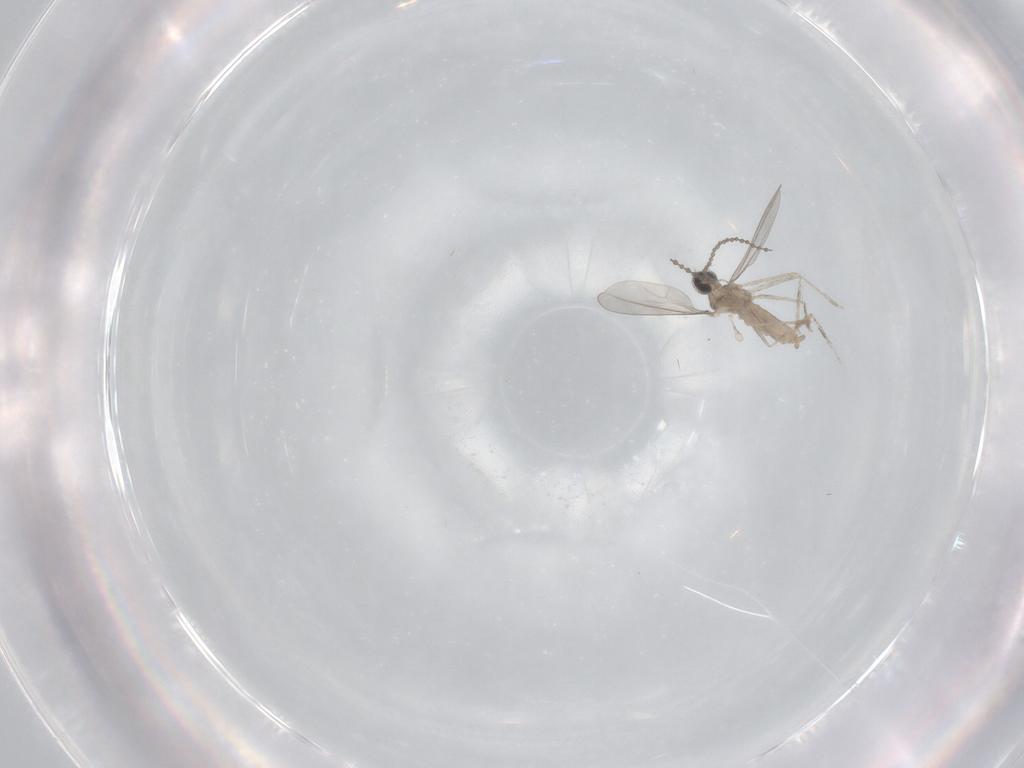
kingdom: Animalia
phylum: Arthropoda
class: Insecta
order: Diptera
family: Cecidomyiidae
